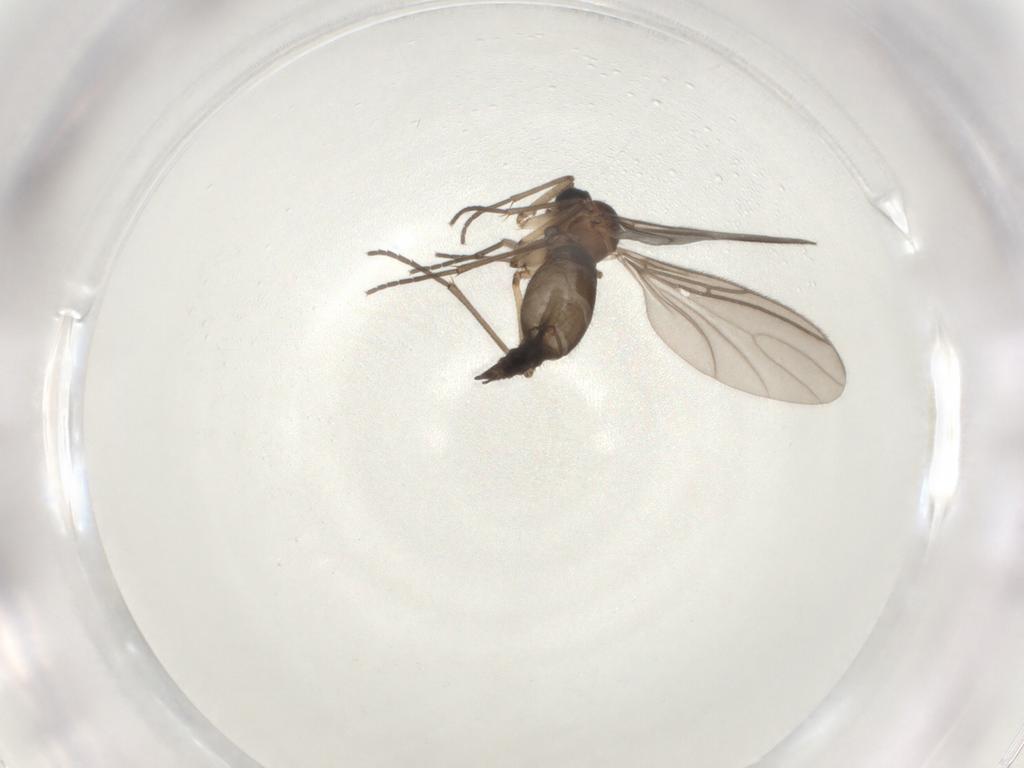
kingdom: Animalia
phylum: Arthropoda
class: Insecta
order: Diptera
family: Sciaridae
